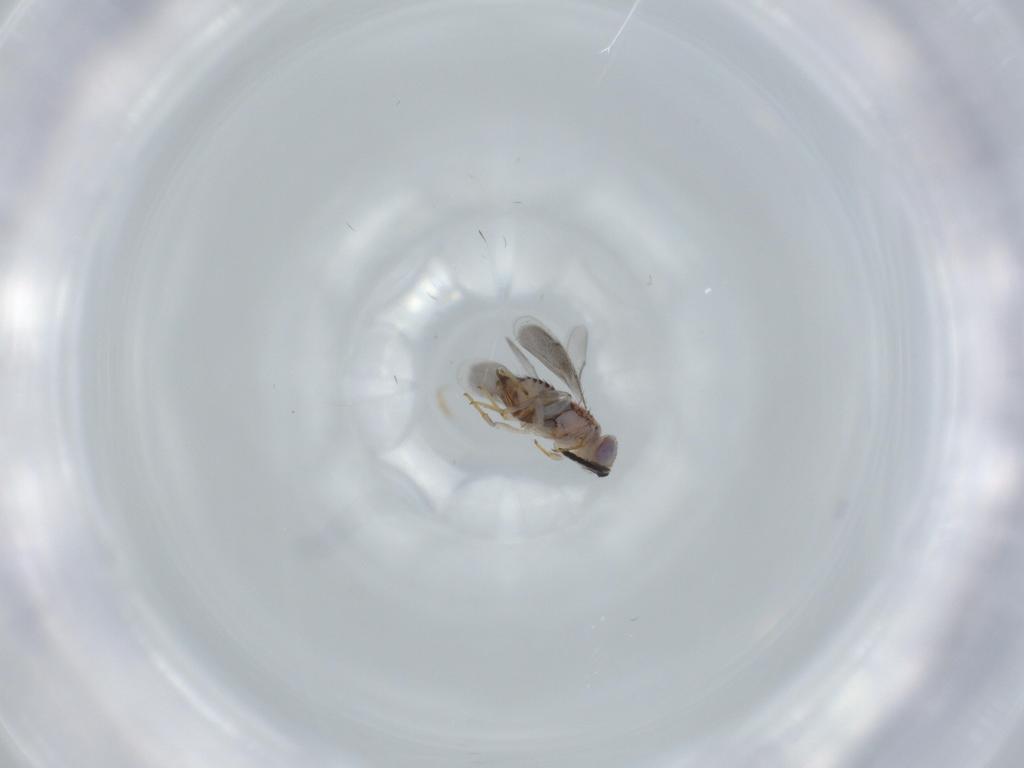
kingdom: Animalia
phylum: Arthropoda
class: Insecta
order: Hymenoptera
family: Aphelinidae
